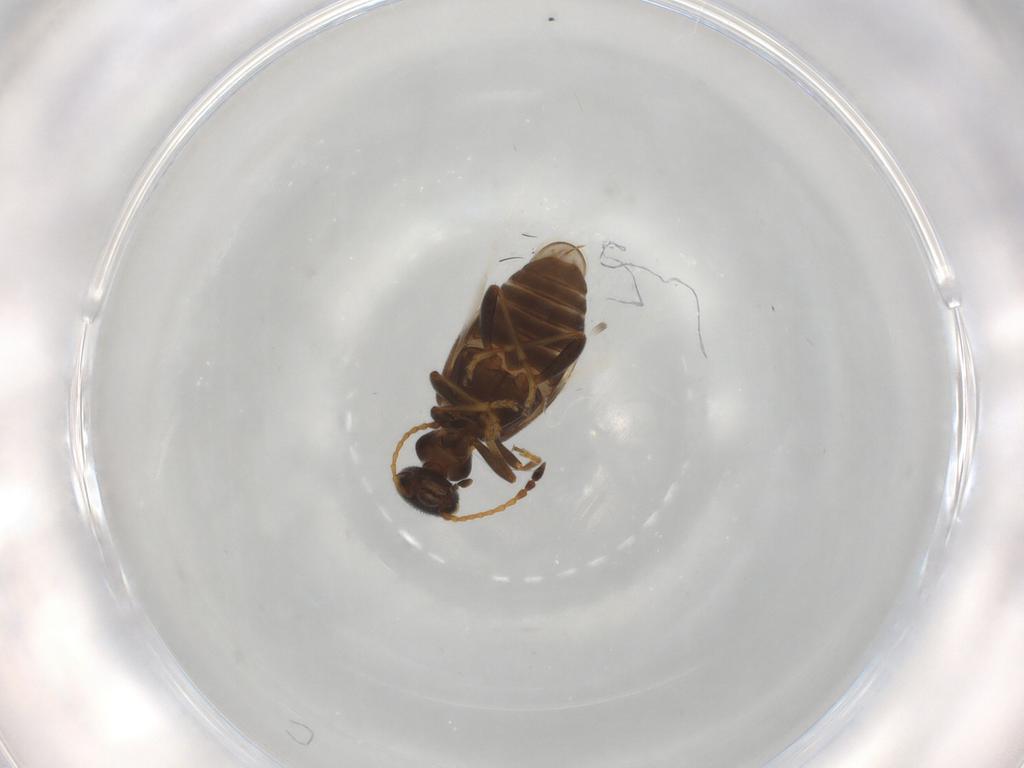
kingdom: Animalia
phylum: Arthropoda
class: Insecta
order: Coleoptera
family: Anthicidae
